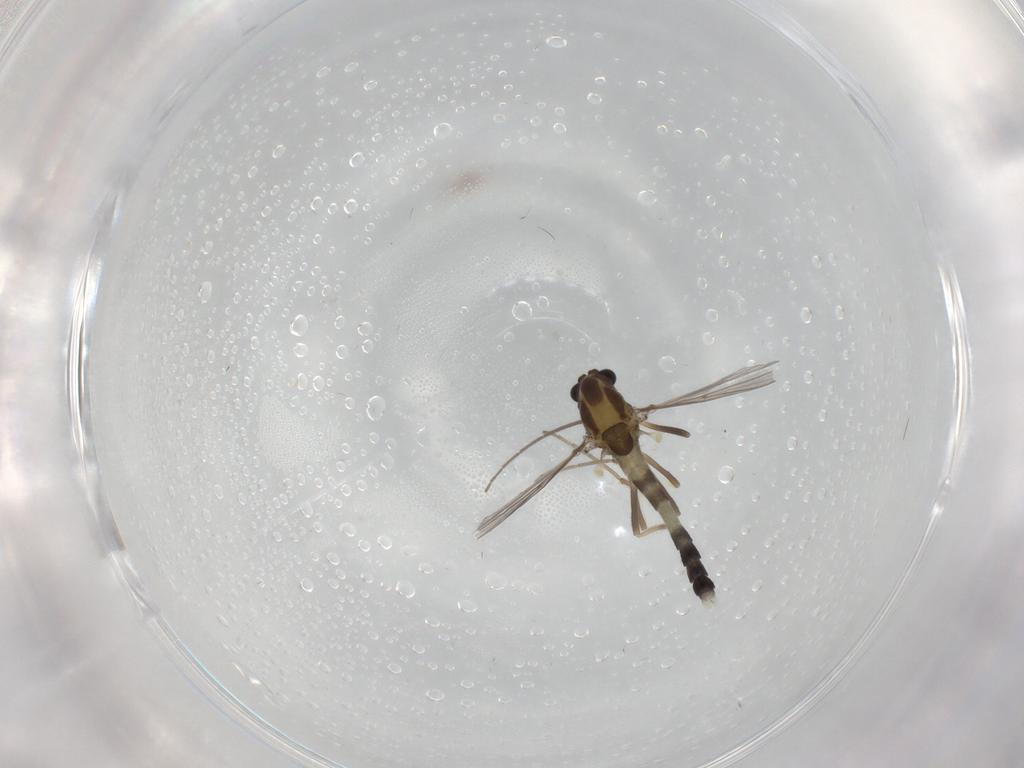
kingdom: Animalia
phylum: Arthropoda
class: Insecta
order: Diptera
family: Chironomidae
